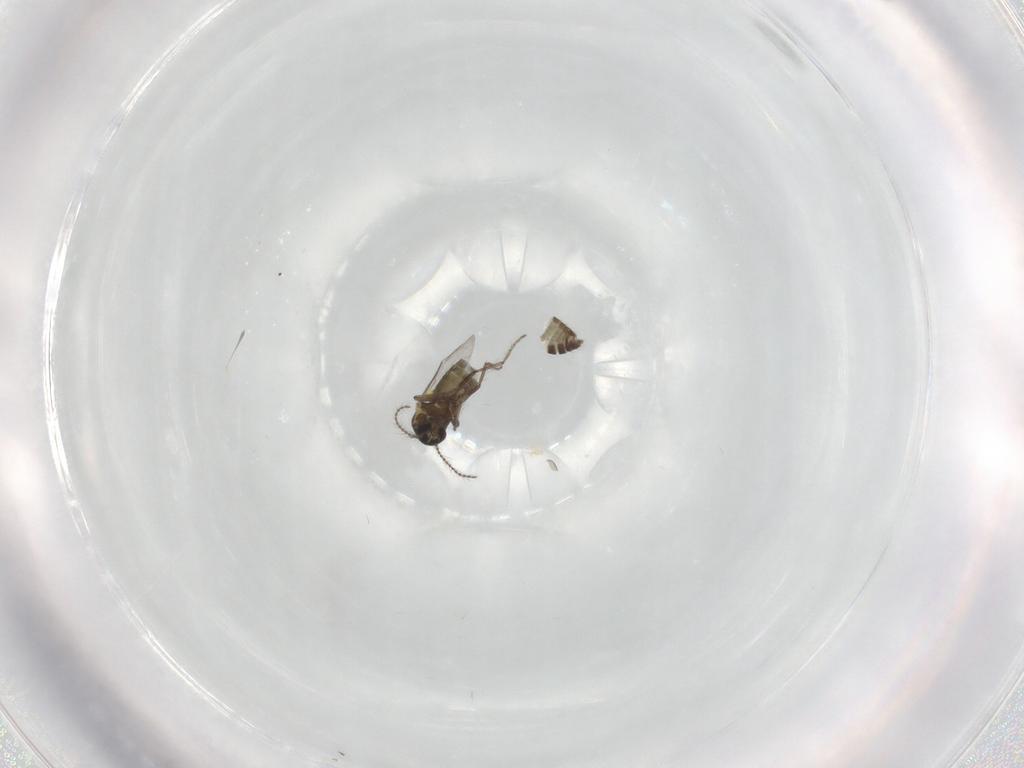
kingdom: Animalia
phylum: Arthropoda
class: Insecta
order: Diptera
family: Ceratopogonidae
